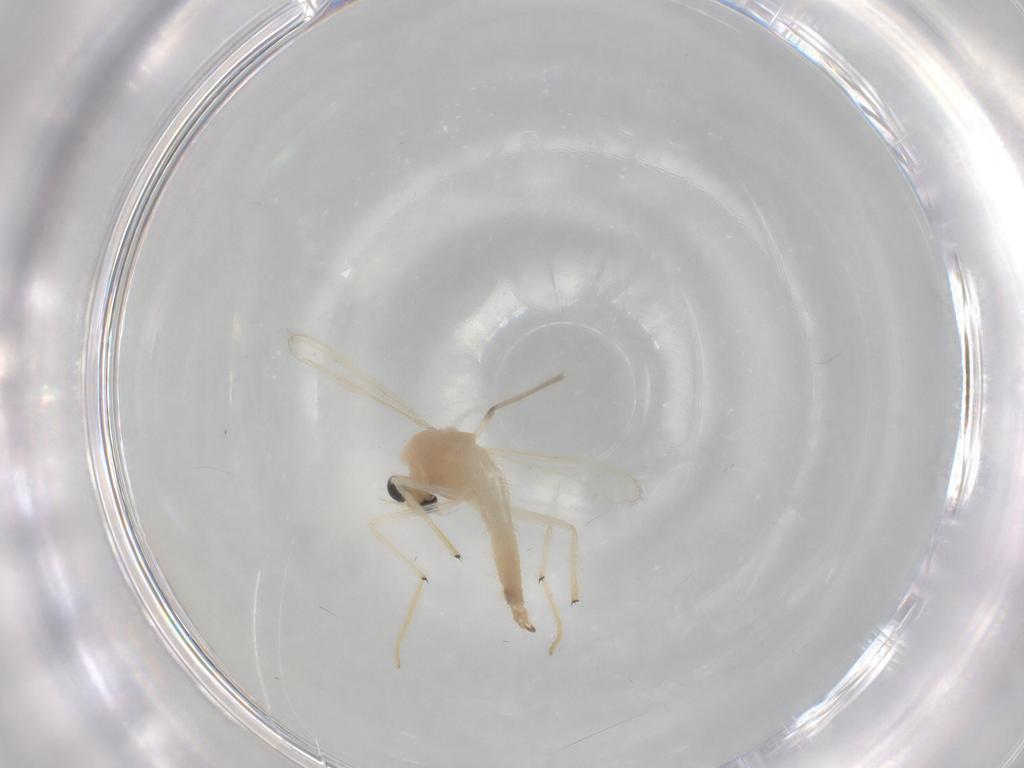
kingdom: Animalia
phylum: Arthropoda
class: Insecta
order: Diptera
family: Chironomidae
